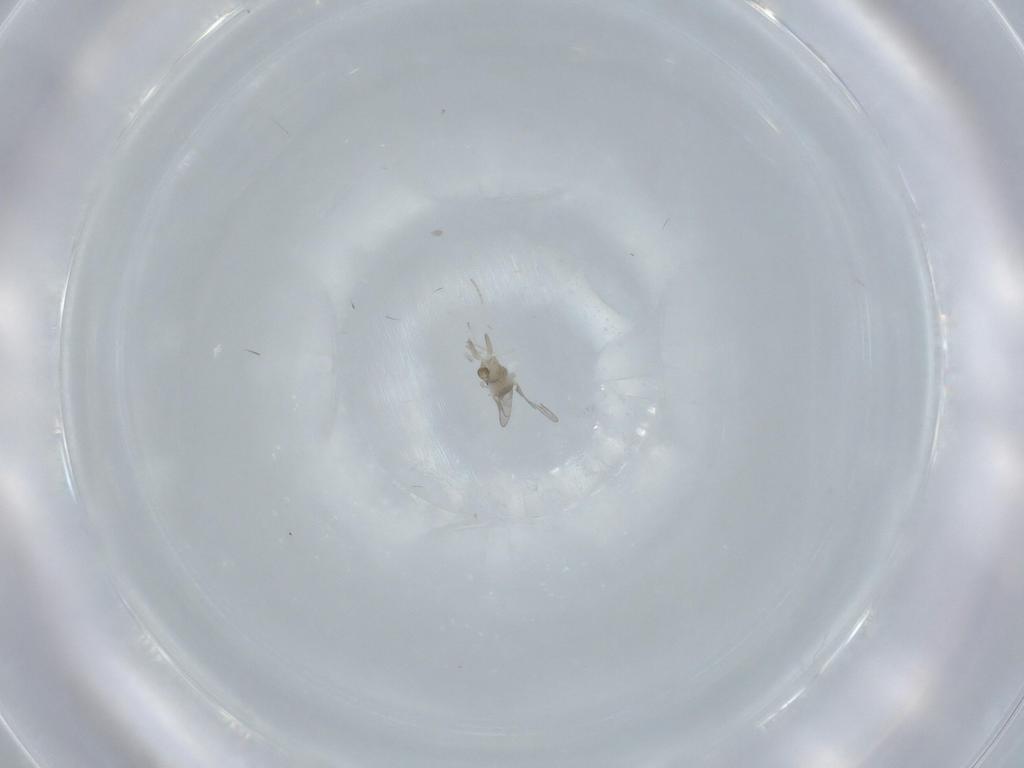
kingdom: Animalia
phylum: Arthropoda
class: Insecta
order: Diptera
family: Cecidomyiidae
